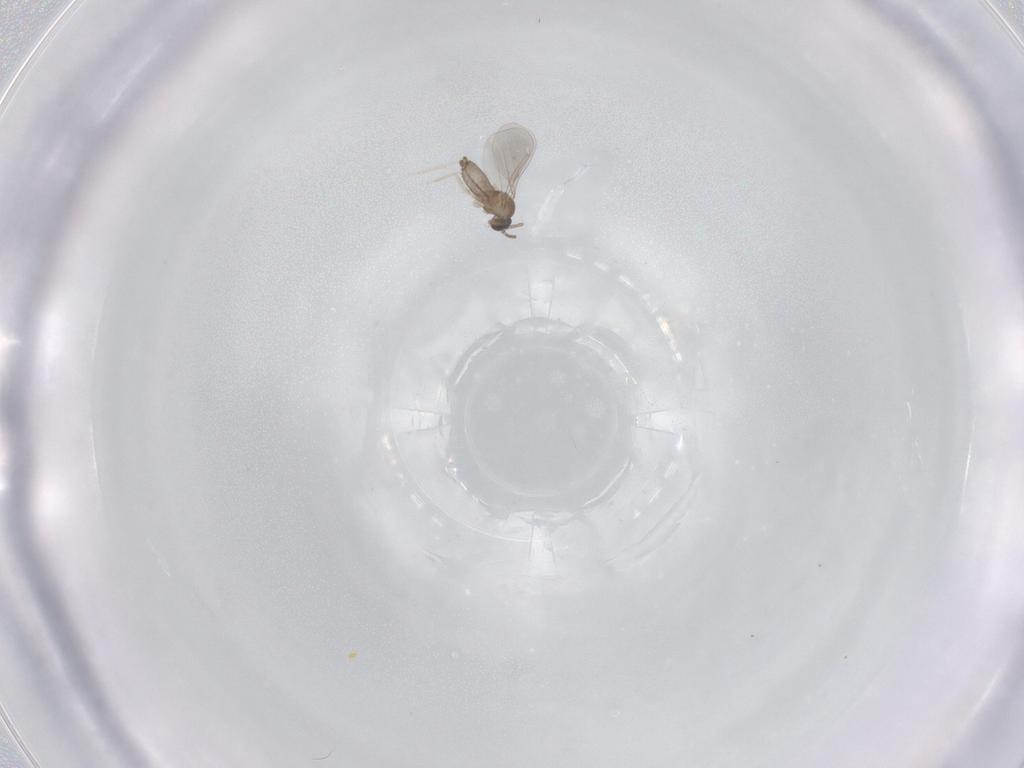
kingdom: Animalia
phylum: Arthropoda
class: Insecta
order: Diptera
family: Cecidomyiidae
